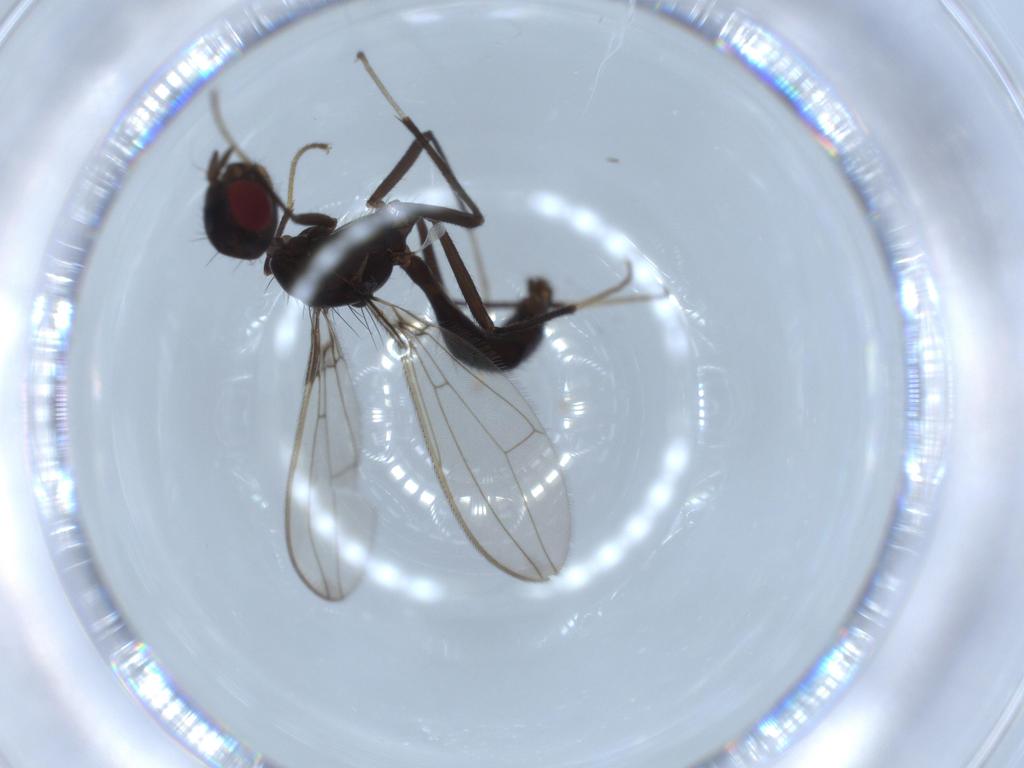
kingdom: Animalia
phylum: Arthropoda
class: Insecta
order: Diptera
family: Richardiidae
